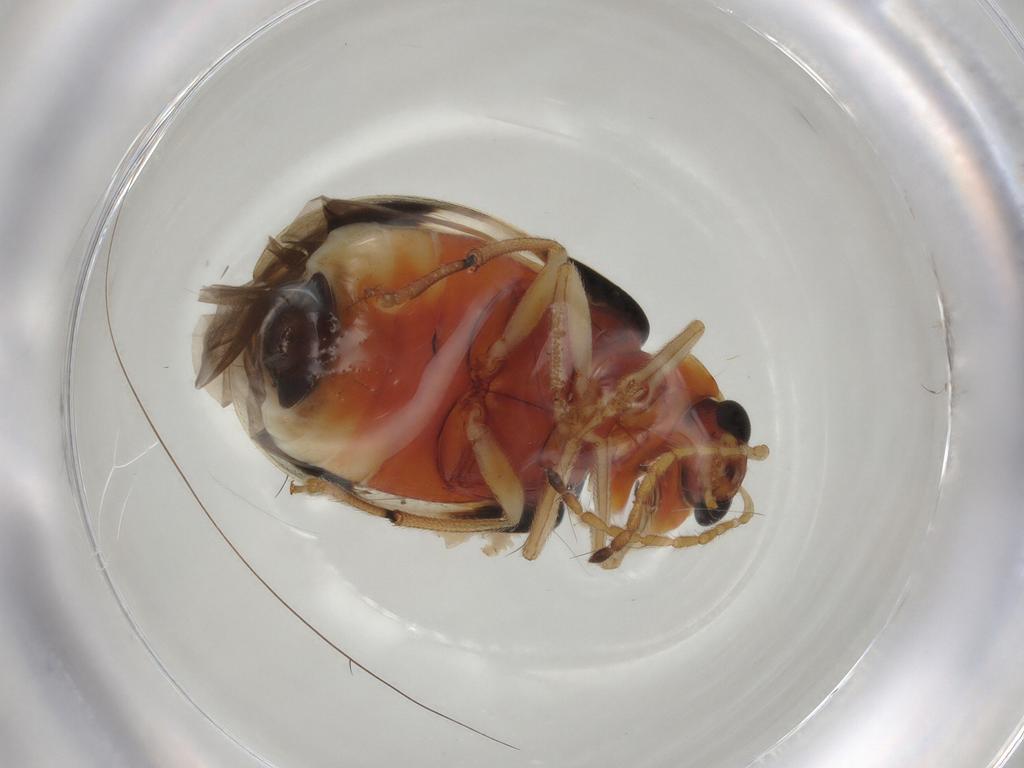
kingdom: Animalia
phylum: Arthropoda
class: Insecta
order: Coleoptera
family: Chrysomelidae
